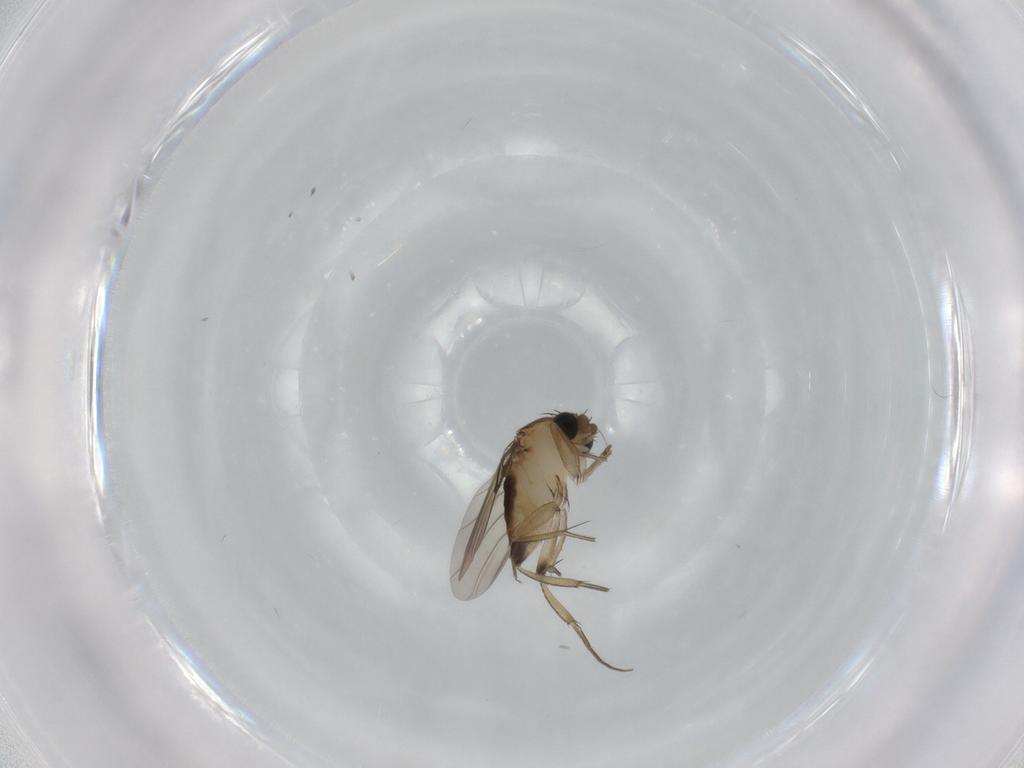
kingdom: Animalia
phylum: Arthropoda
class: Insecta
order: Diptera
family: Phoridae
